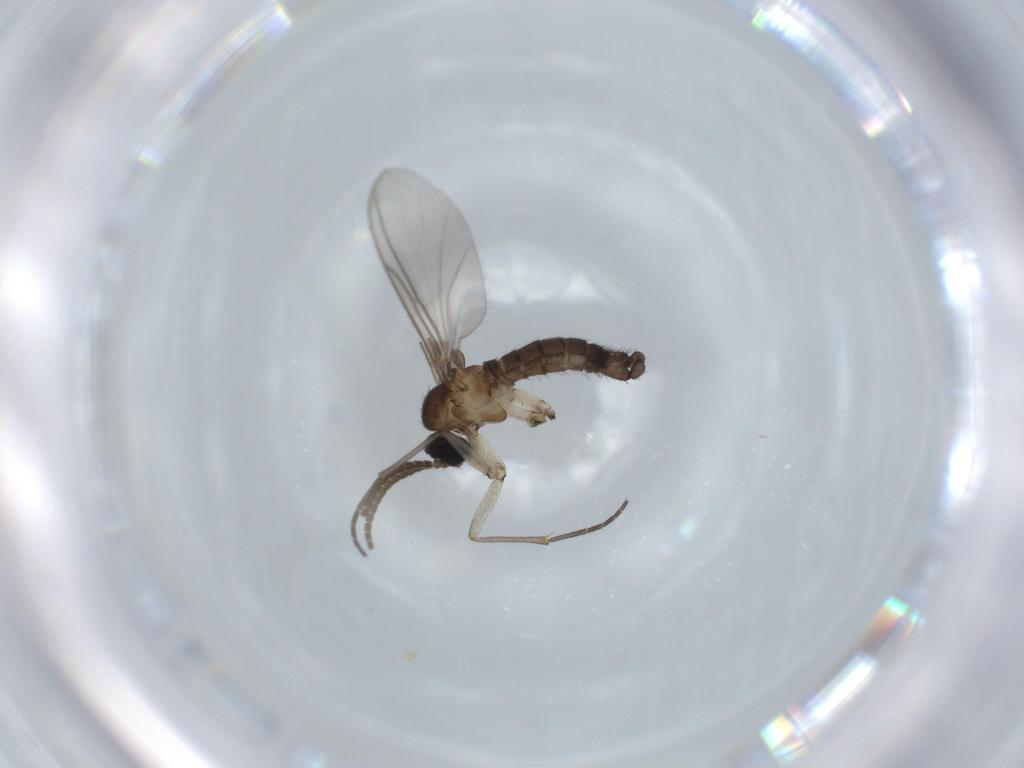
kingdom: Animalia
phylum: Arthropoda
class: Insecta
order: Diptera
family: Sciaridae
